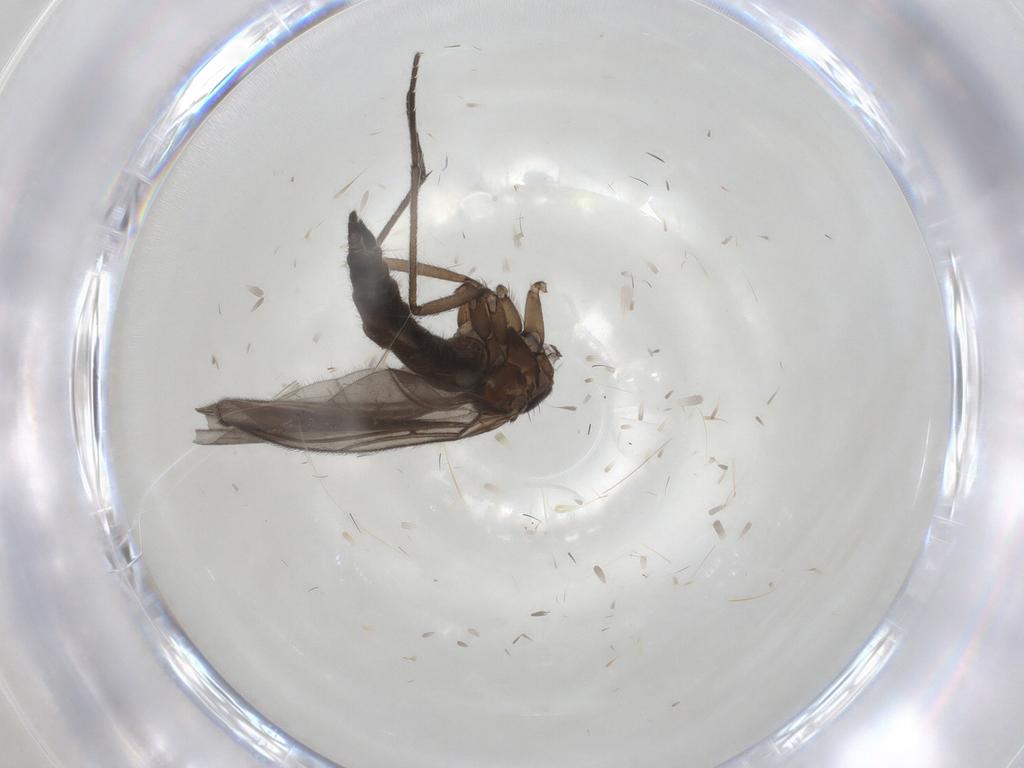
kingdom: Animalia
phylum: Arthropoda
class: Insecta
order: Diptera
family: Sciaridae
